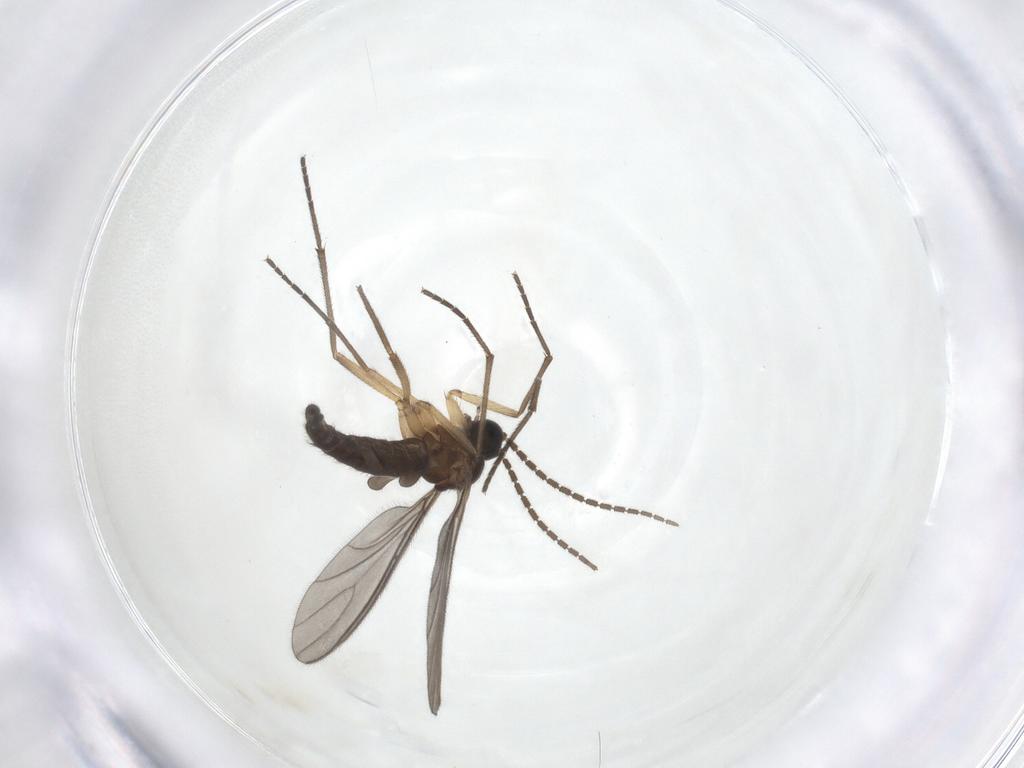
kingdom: Animalia
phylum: Arthropoda
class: Insecta
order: Diptera
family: Sciaridae
